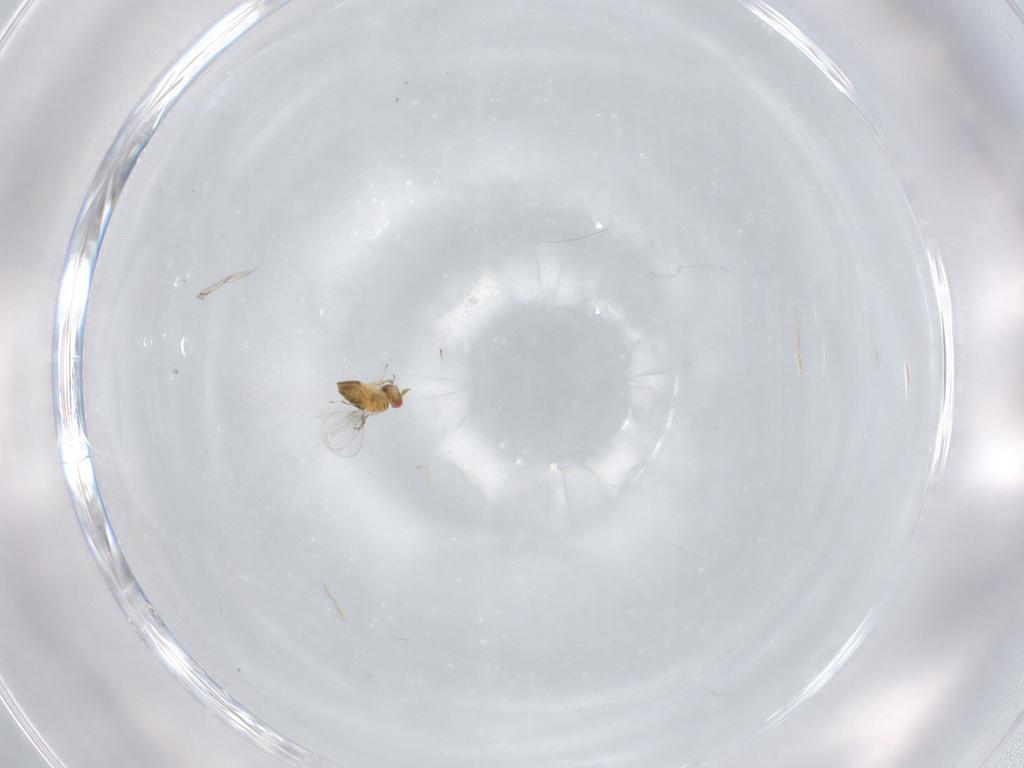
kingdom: Animalia
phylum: Arthropoda
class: Insecta
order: Hymenoptera
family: Trichogrammatidae
